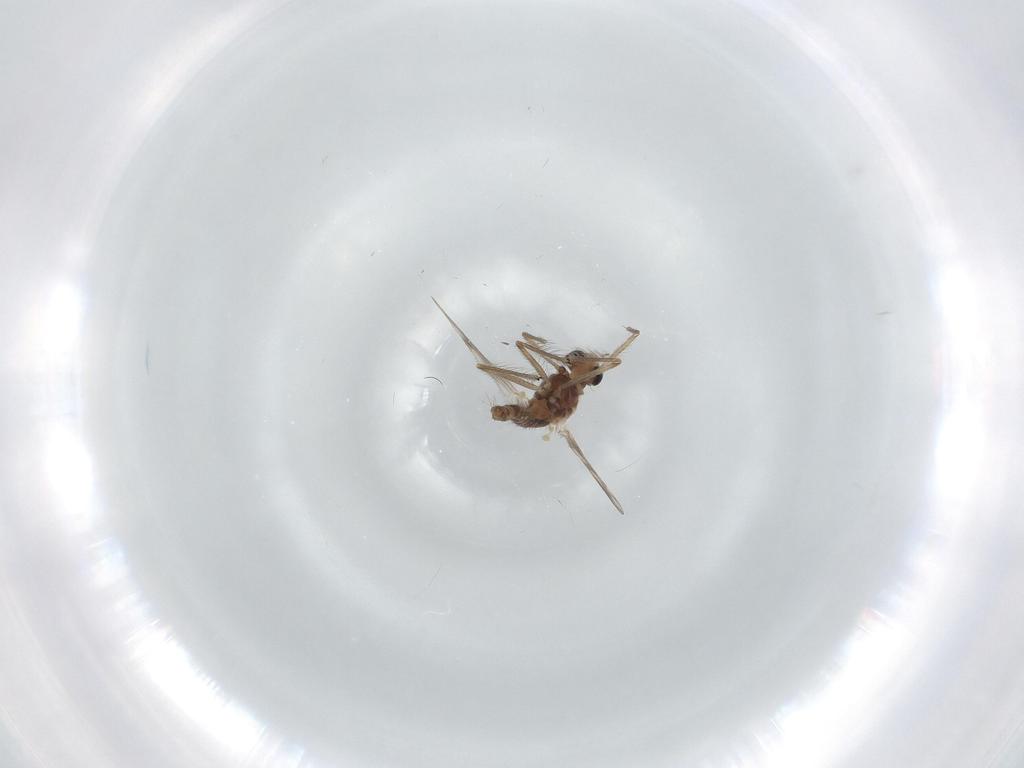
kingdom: Animalia
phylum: Arthropoda
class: Insecta
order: Diptera
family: Chironomidae
